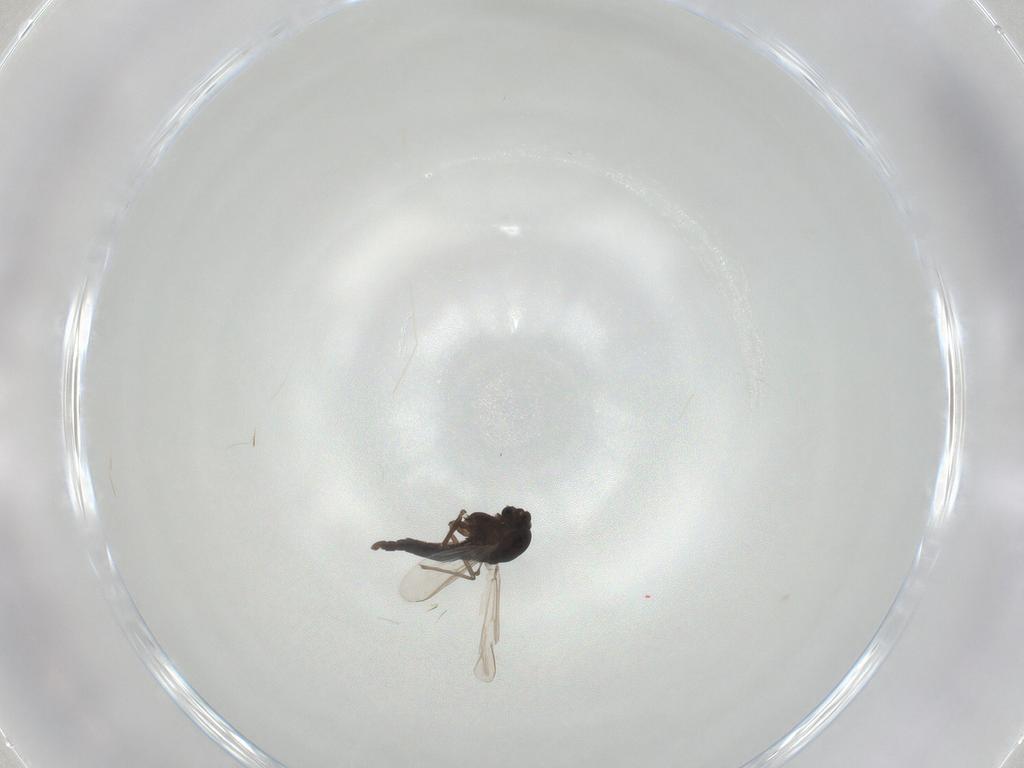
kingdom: Animalia
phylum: Arthropoda
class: Insecta
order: Diptera
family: Chironomidae
